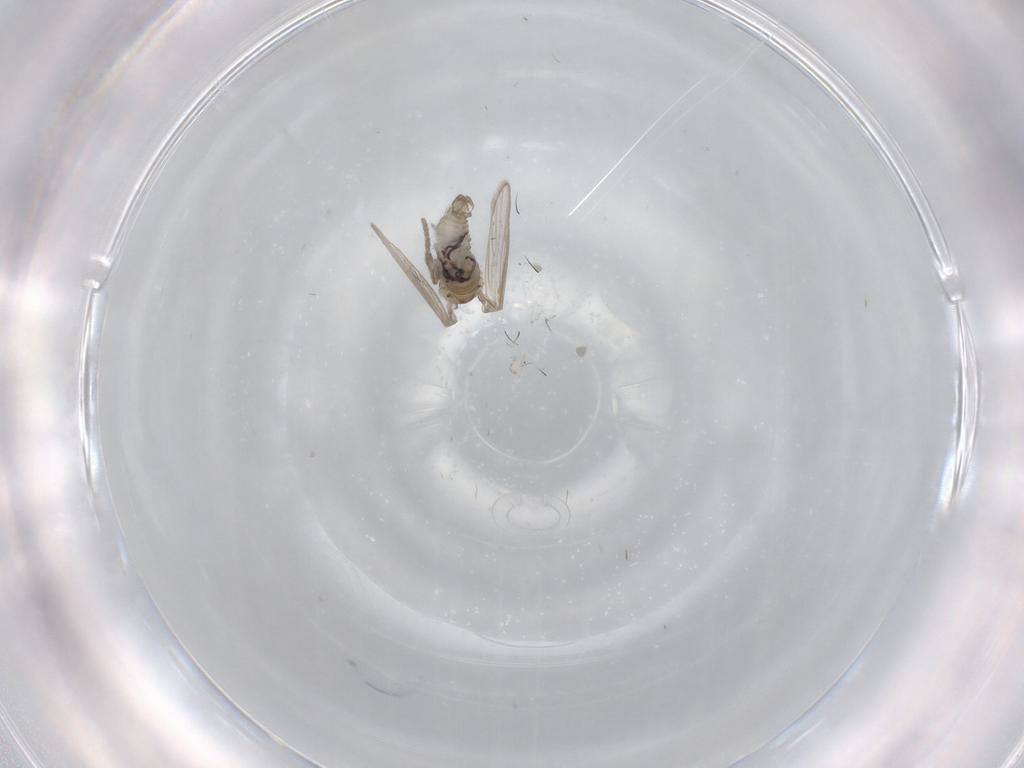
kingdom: Animalia
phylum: Arthropoda
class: Insecta
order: Diptera
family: Psychodidae
